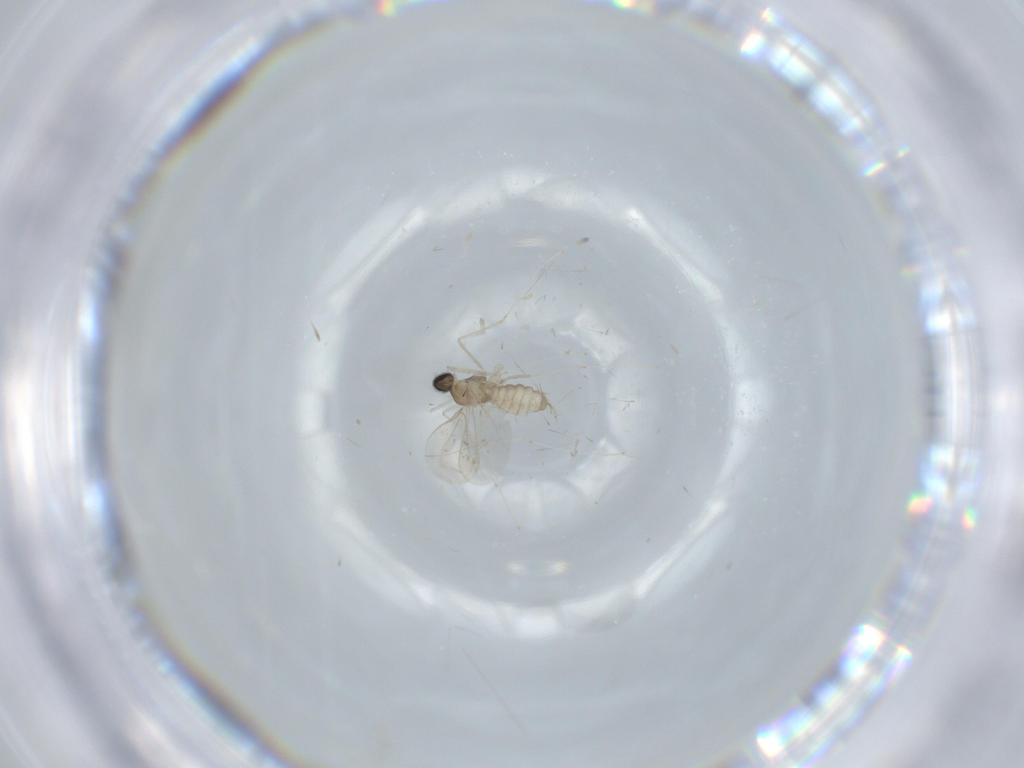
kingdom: Animalia
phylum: Arthropoda
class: Insecta
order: Diptera
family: Cecidomyiidae
